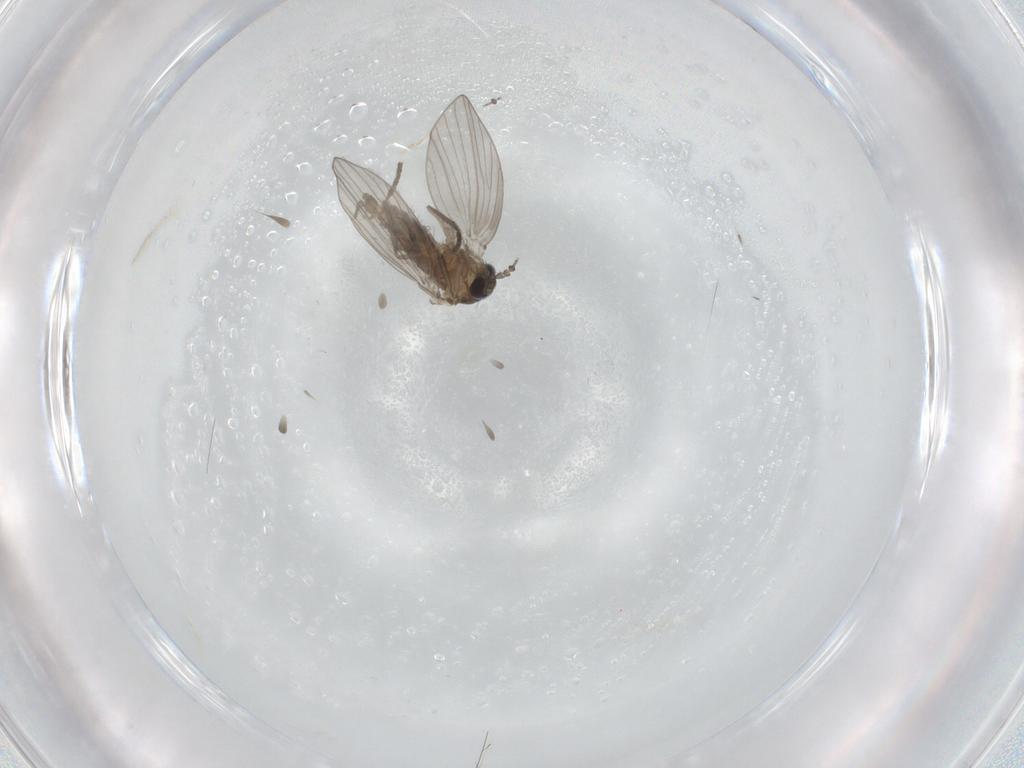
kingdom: Animalia
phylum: Arthropoda
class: Insecta
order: Diptera
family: Psychodidae
